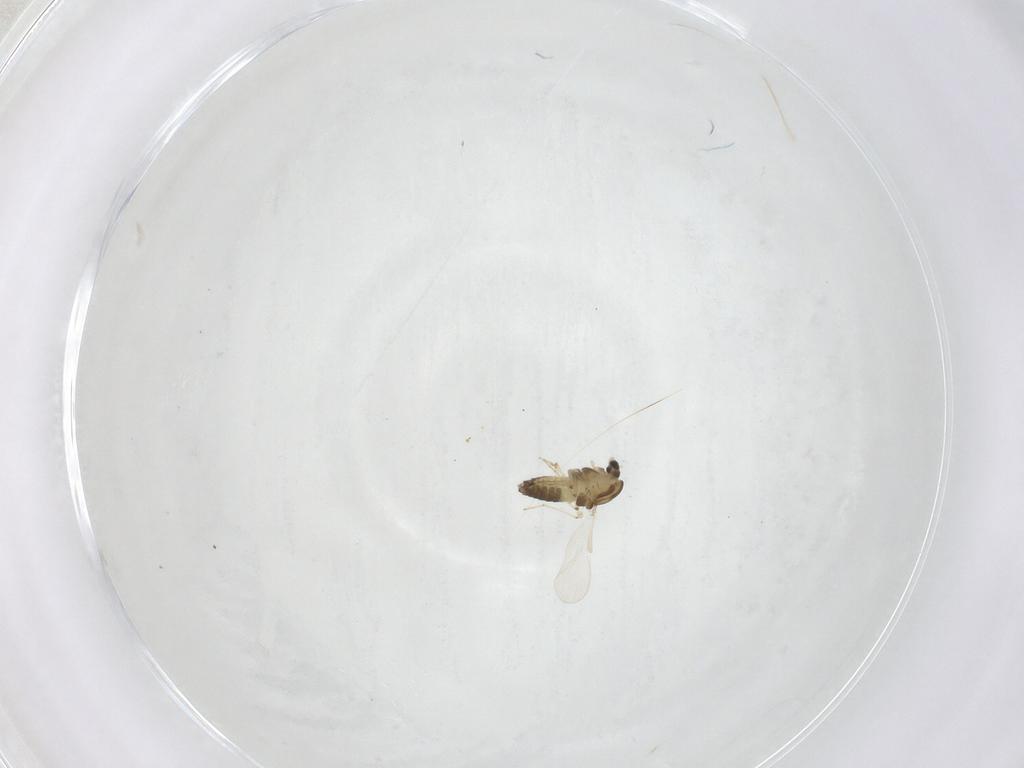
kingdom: Animalia
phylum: Arthropoda
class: Insecta
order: Diptera
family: Chironomidae
